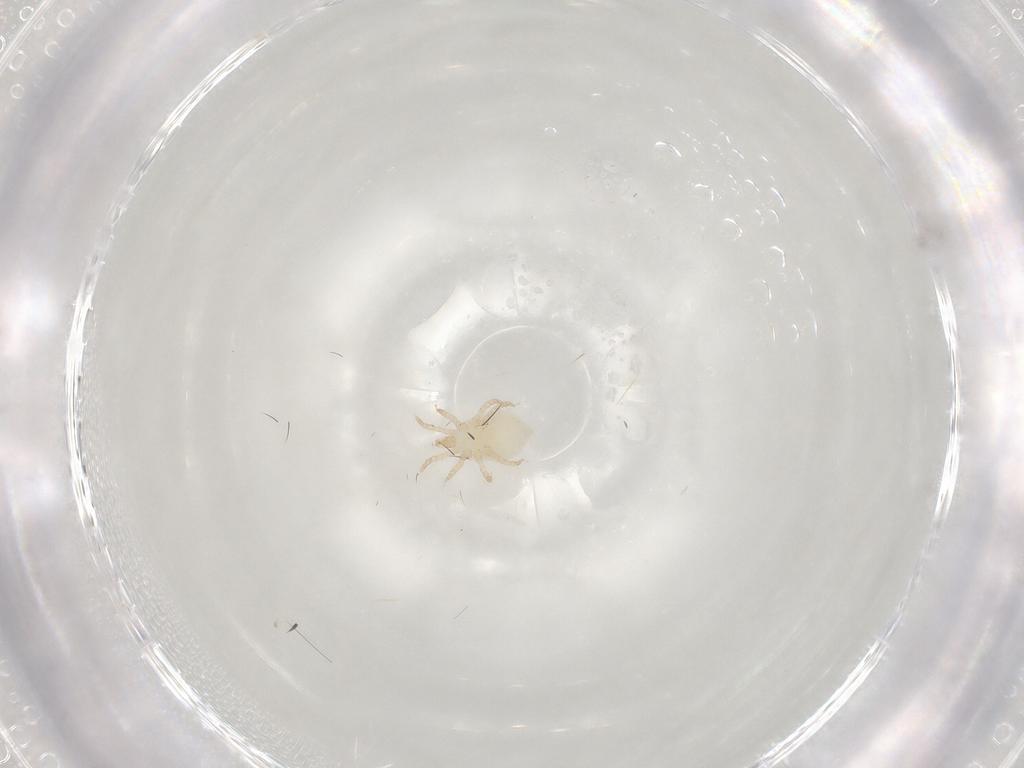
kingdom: Animalia
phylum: Arthropoda
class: Arachnida
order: Mesostigmata
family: Melicharidae
